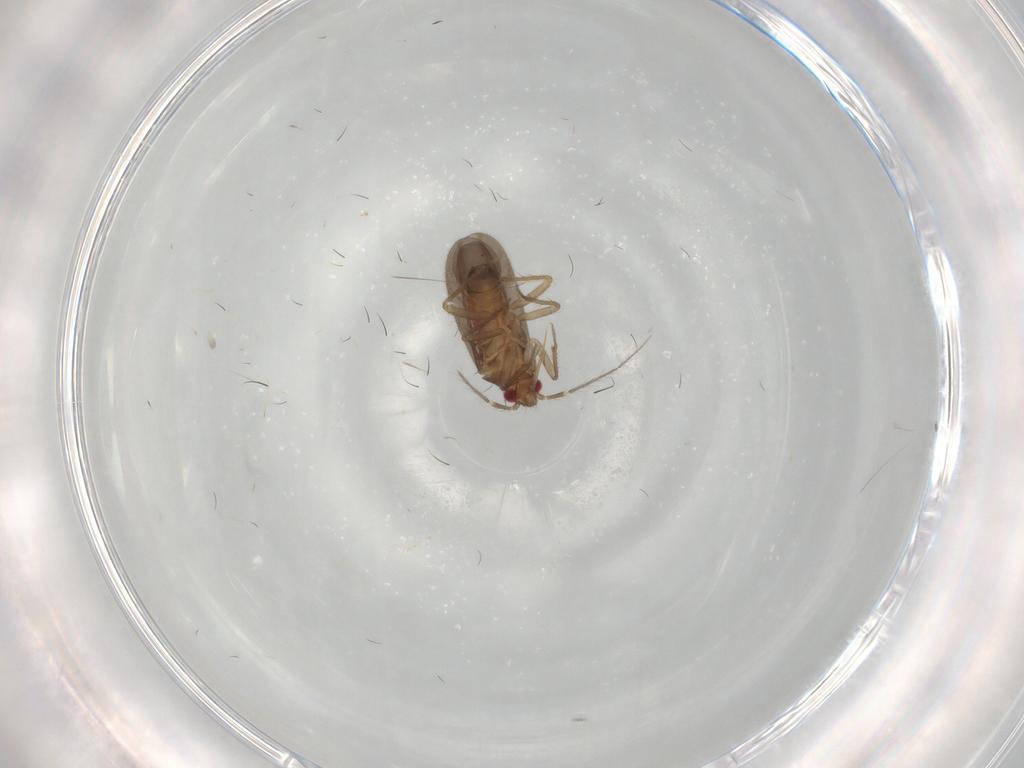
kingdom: Animalia
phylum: Arthropoda
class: Insecta
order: Hemiptera
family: Ceratocombidae
